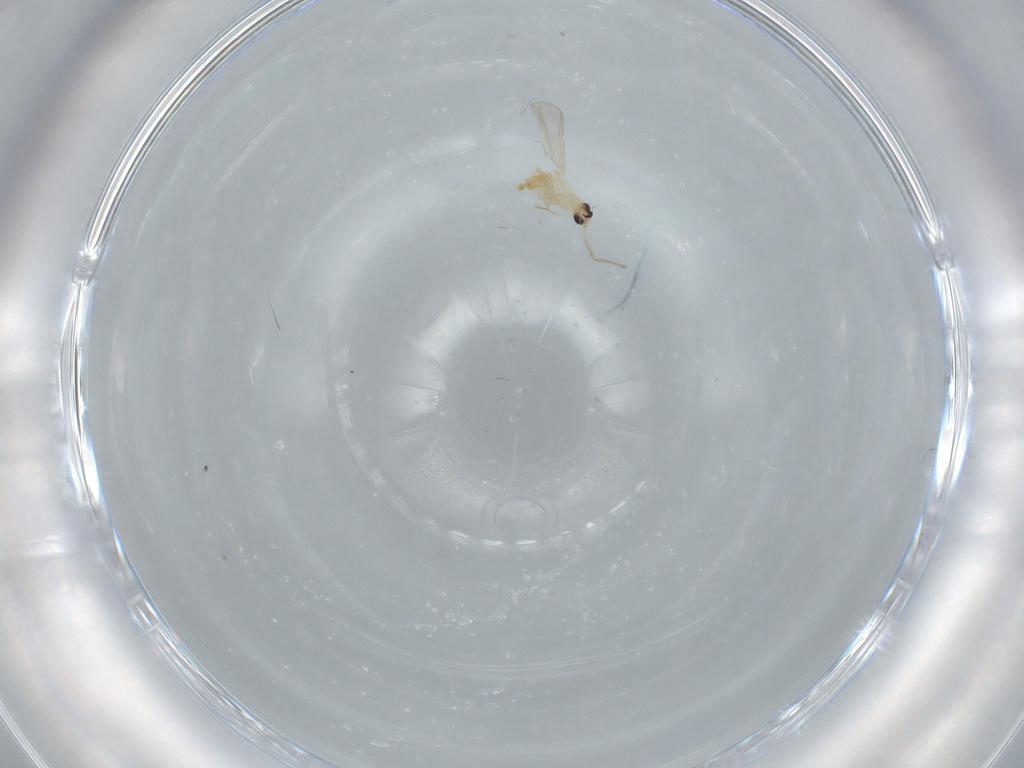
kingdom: Animalia
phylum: Arthropoda
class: Insecta
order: Diptera
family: Chironomidae
